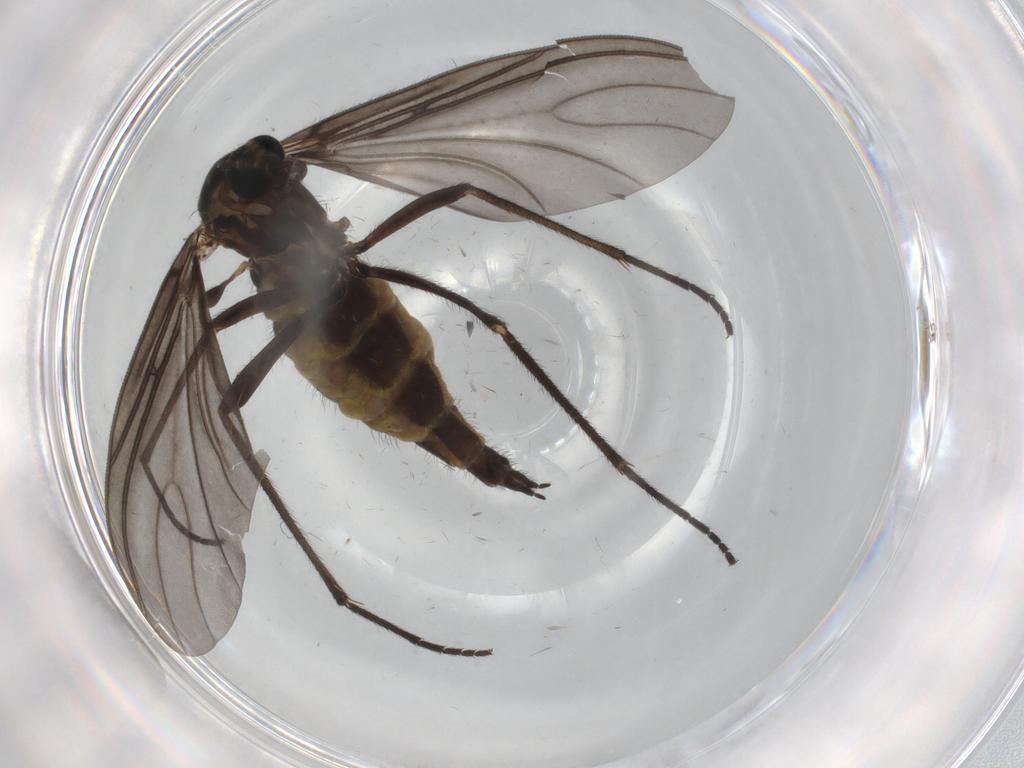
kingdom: Animalia
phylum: Arthropoda
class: Insecta
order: Diptera
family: Sciaridae
